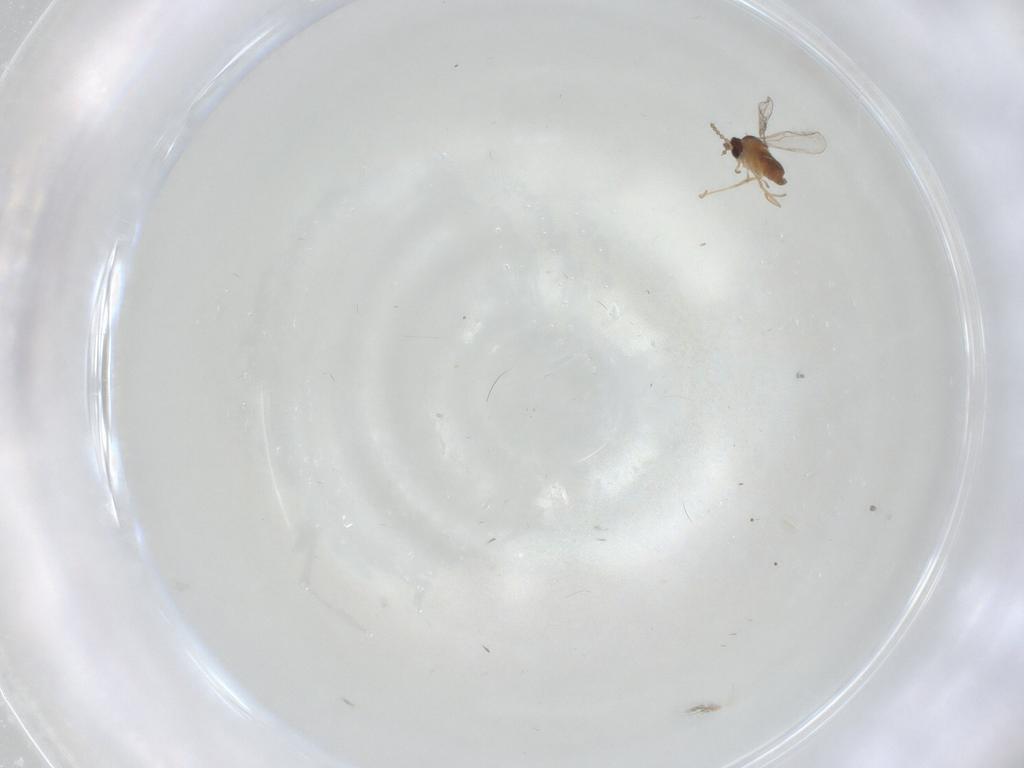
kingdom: Animalia
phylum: Arthropoda
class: Insecta
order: Diptera
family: Cecidomyiidae
